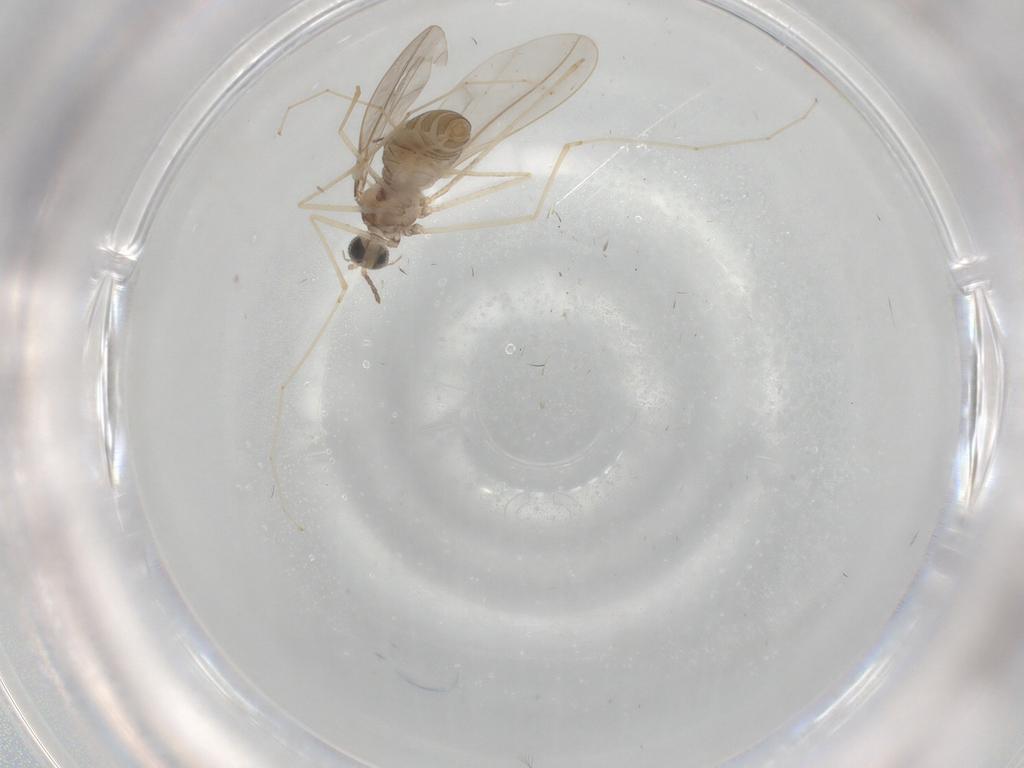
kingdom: Animalia
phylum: Arthropoda
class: Insecta
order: Diptera
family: Limoniidae
